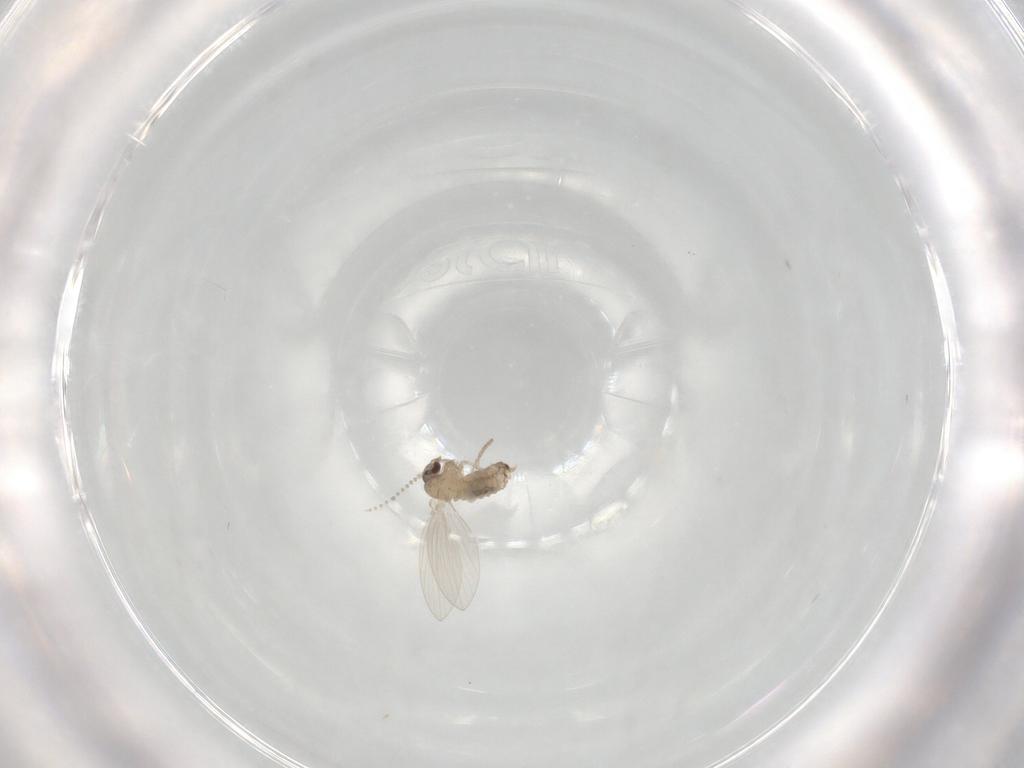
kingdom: Animalia
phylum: Arthropoda
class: Insecta
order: Diptera
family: Psychodidae
